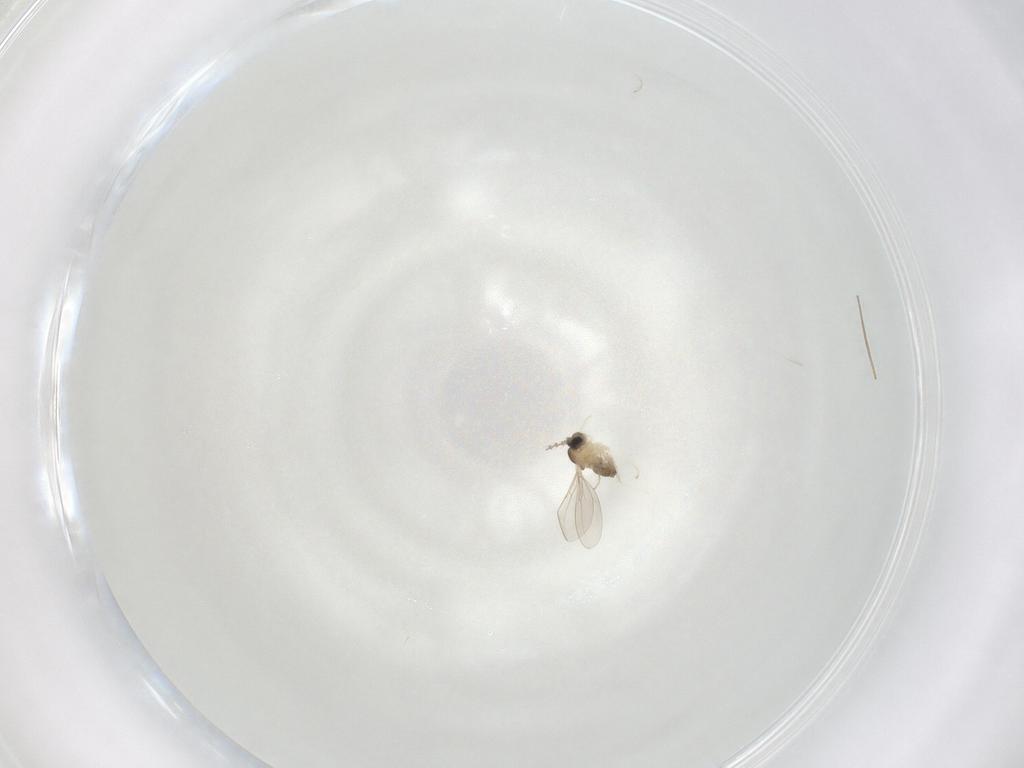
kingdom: Animalia
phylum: Arthropoda
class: Insecta
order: Diptera
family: Chironomidae
